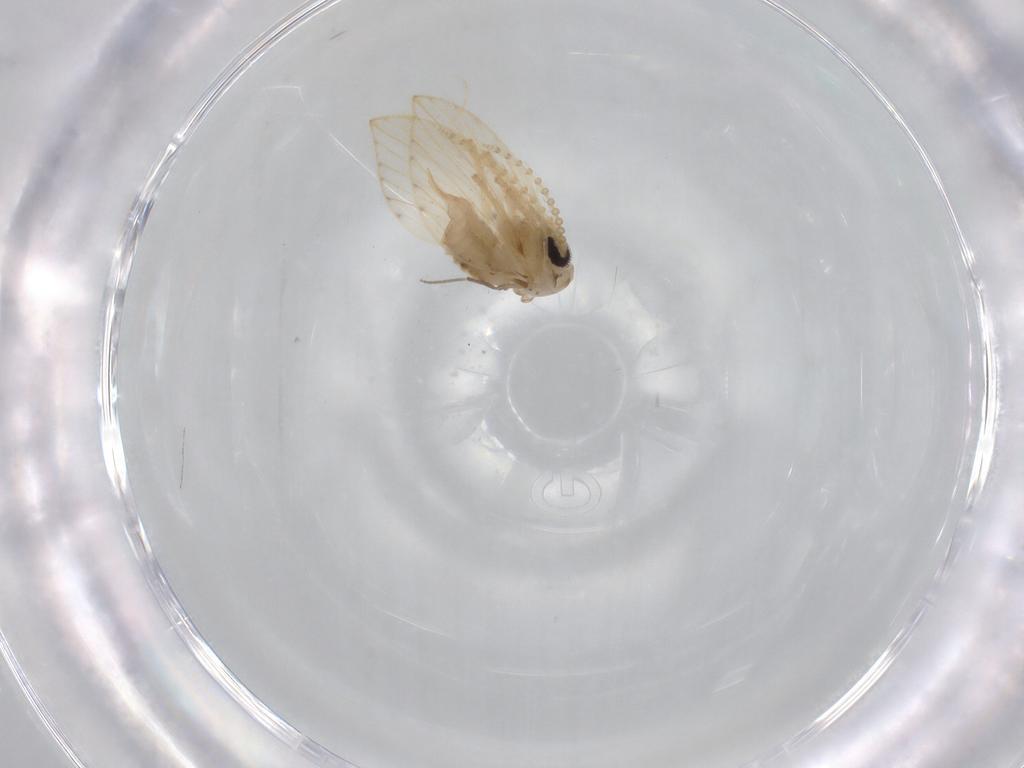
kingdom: Animalia
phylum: Arthropoda
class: Insecta
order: Diptera
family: Psychodidae
